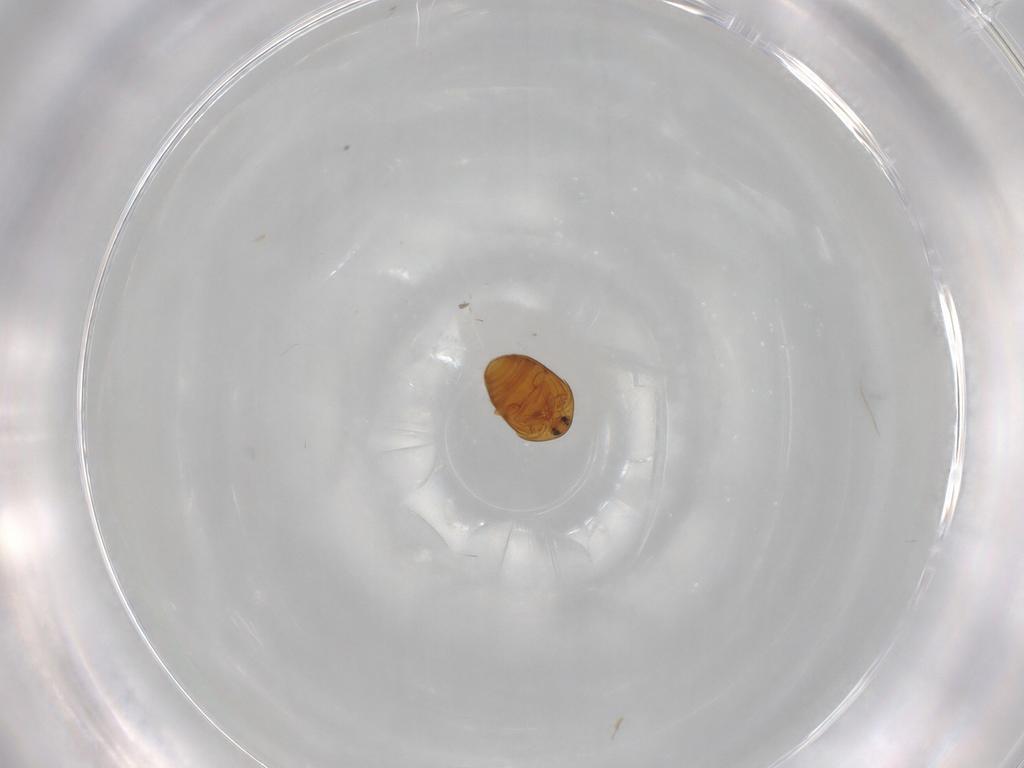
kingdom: Animalia
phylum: Arthropoda
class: Insecta
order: Coleoptera
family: Corylophidae
